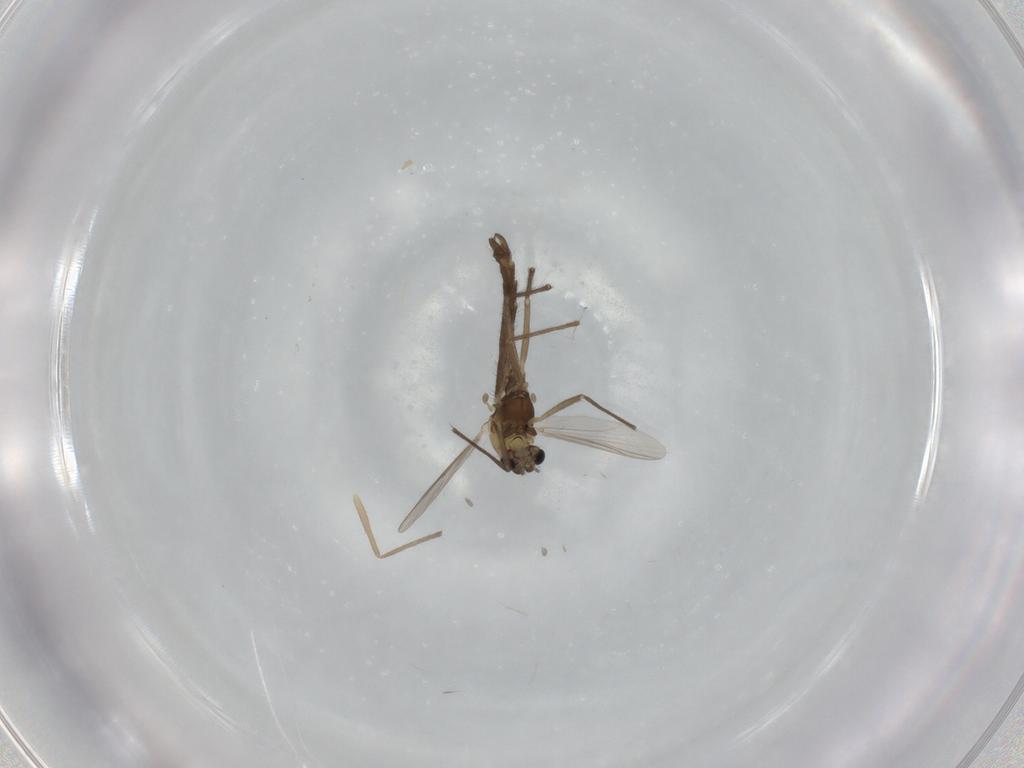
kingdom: Animalia
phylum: Arthropoda
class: Insecta
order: Diptera
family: Chironomidae
